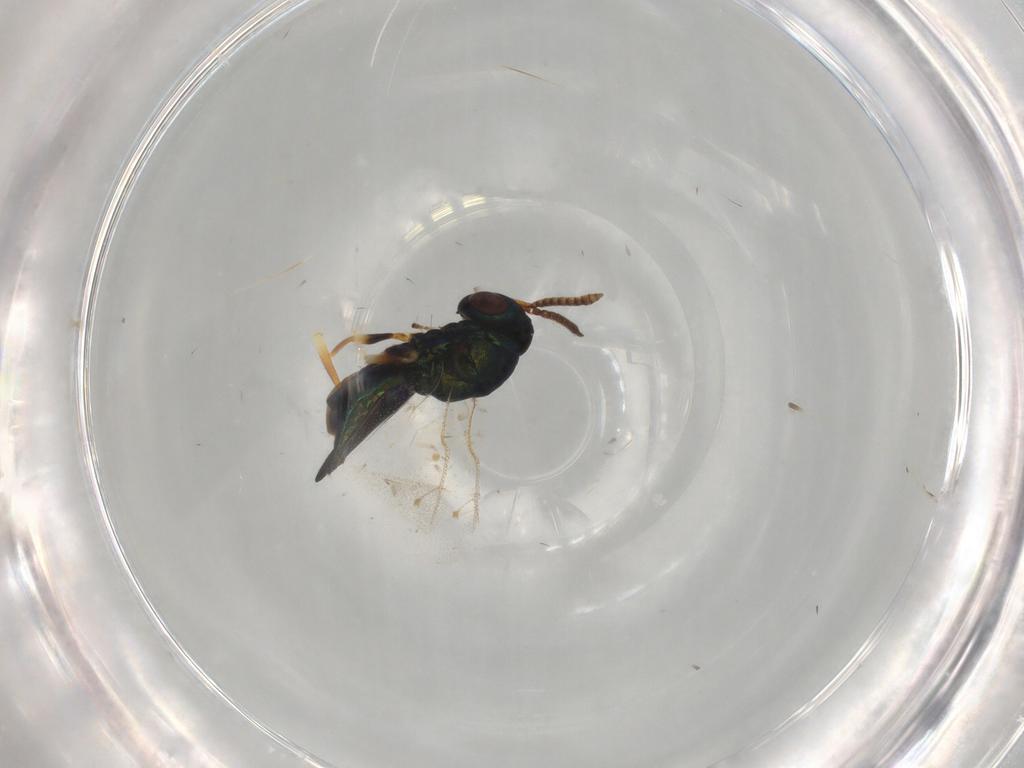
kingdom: Animalia
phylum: Arthropoda
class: Insecta
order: Hymenoptera
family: Pteromalidae
